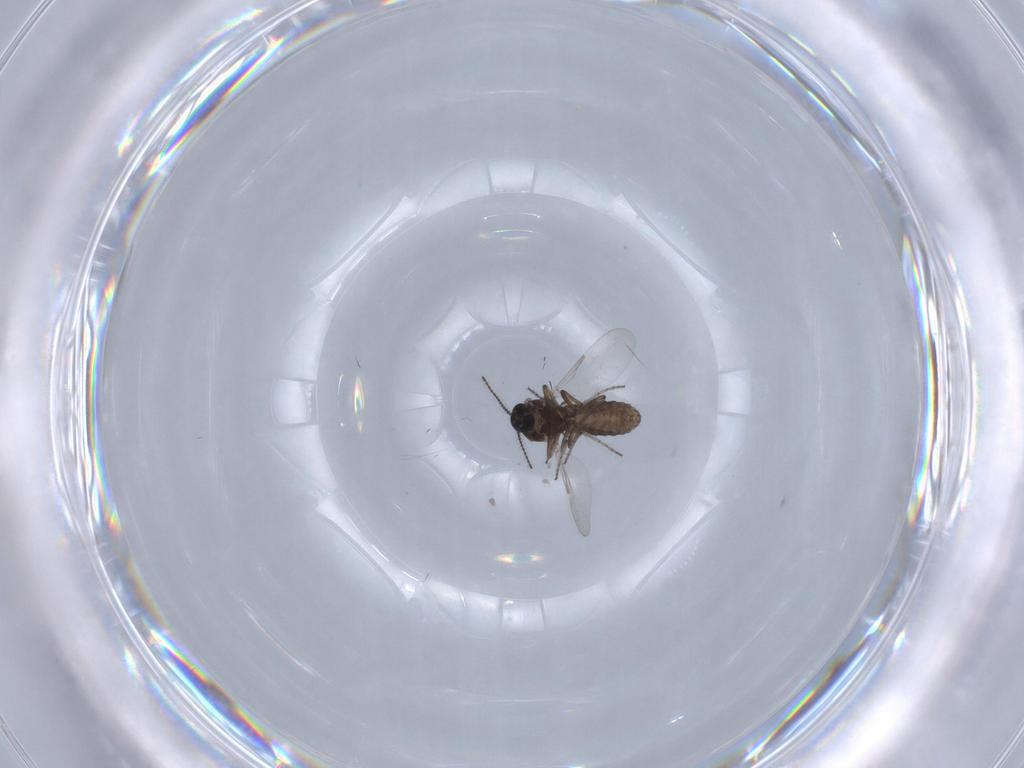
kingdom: Animalia
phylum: Arthropoda
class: Insecta
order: Diptera
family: Ceratopogonidae
